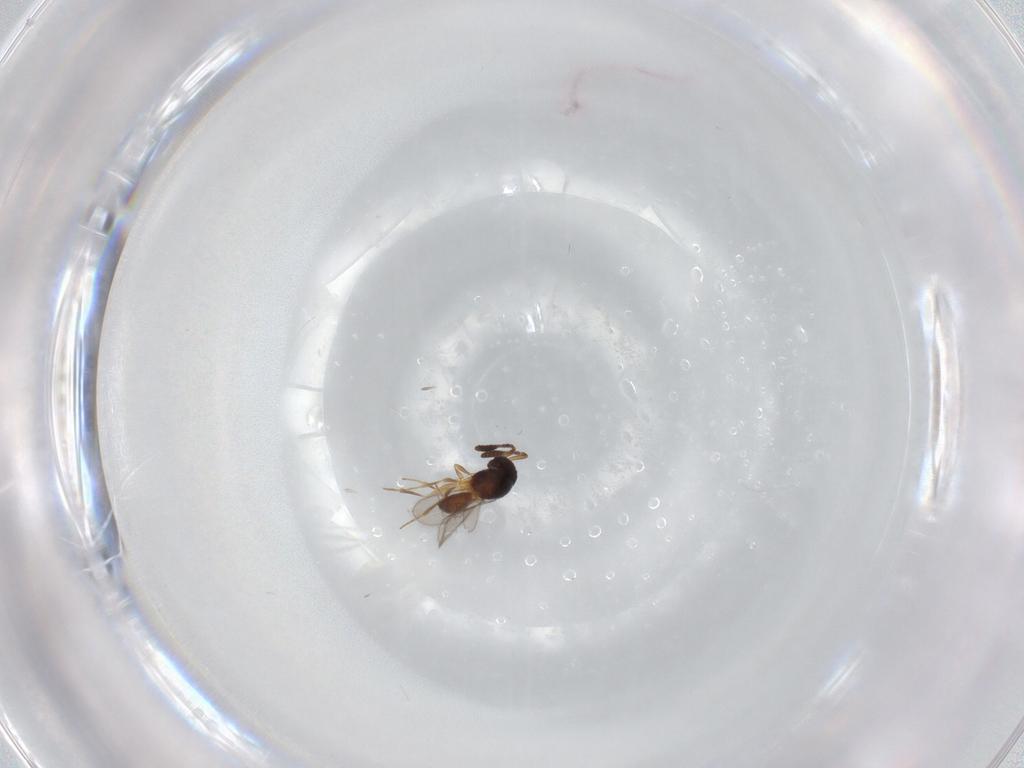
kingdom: Animalia
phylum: Arthropoda
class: Insecta
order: Hymenoptera
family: Scelionidae
